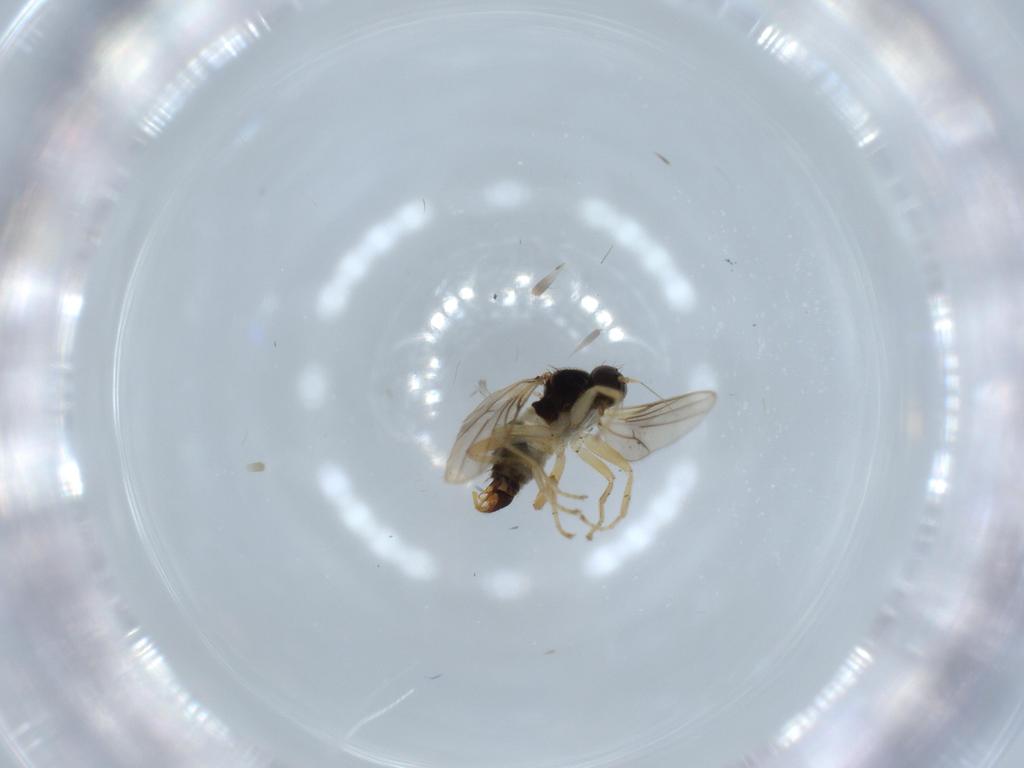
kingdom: Animalia
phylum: Arthropoda
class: Insecta
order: Diptera
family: Hybotidae
